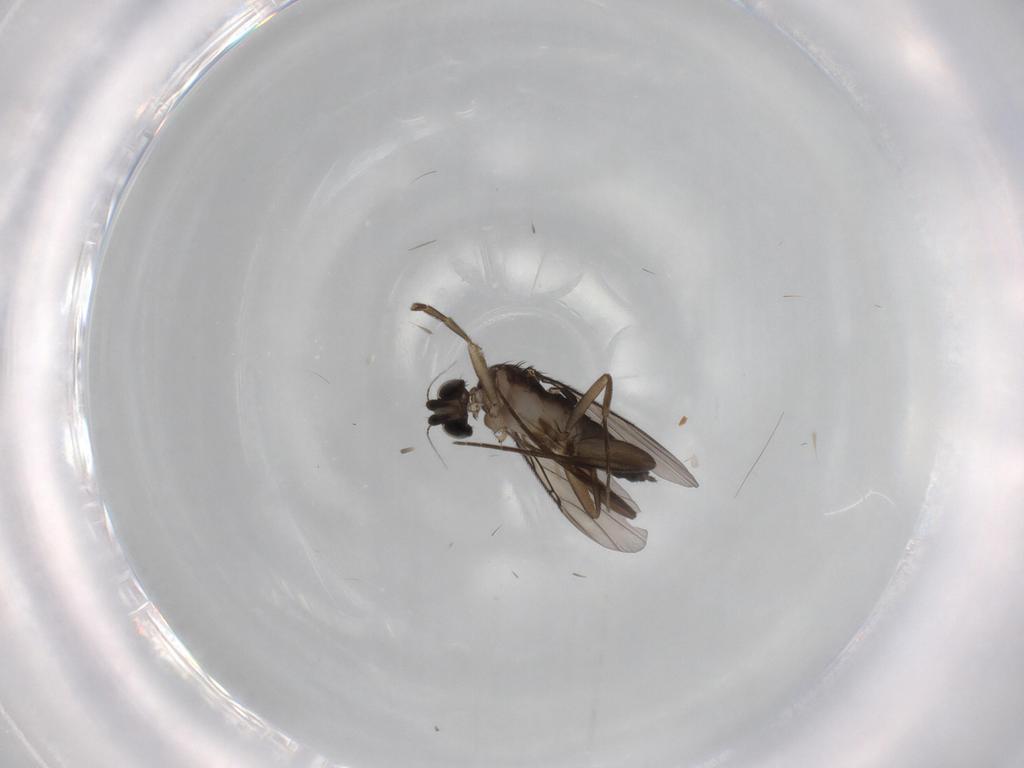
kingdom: Animalia
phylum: Arthropoda
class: Insecta
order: Diptera
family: Phoridae
